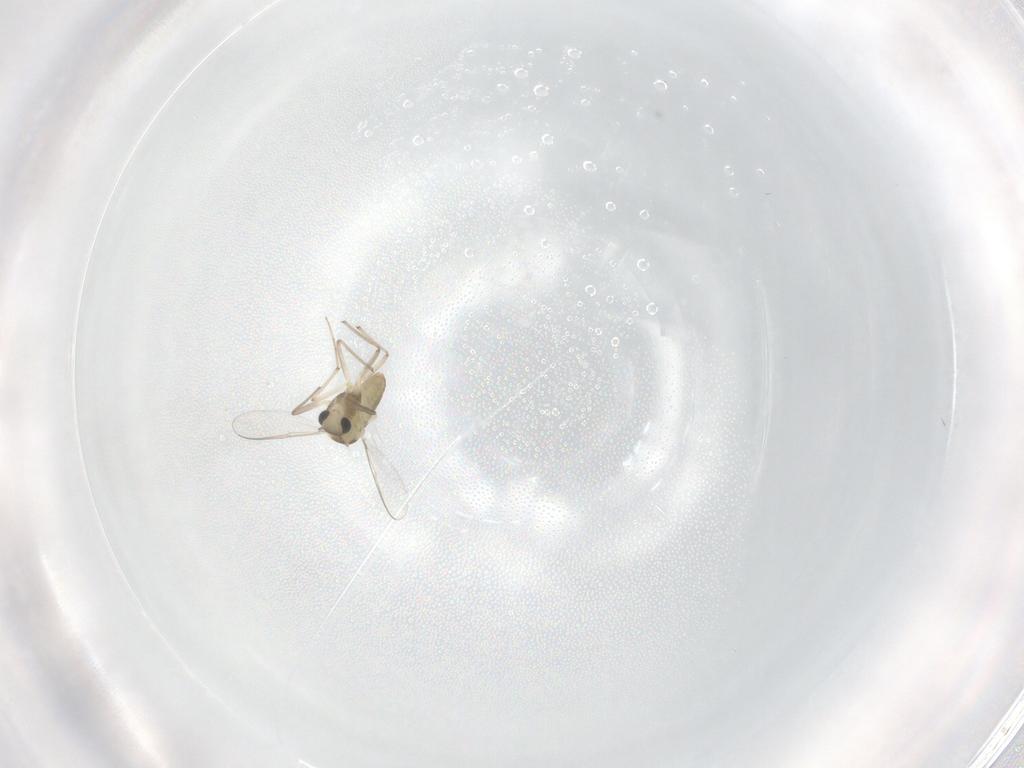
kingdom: Animalia
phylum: Arthropoda
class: Insecta
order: Diptera
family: Chironomidae
